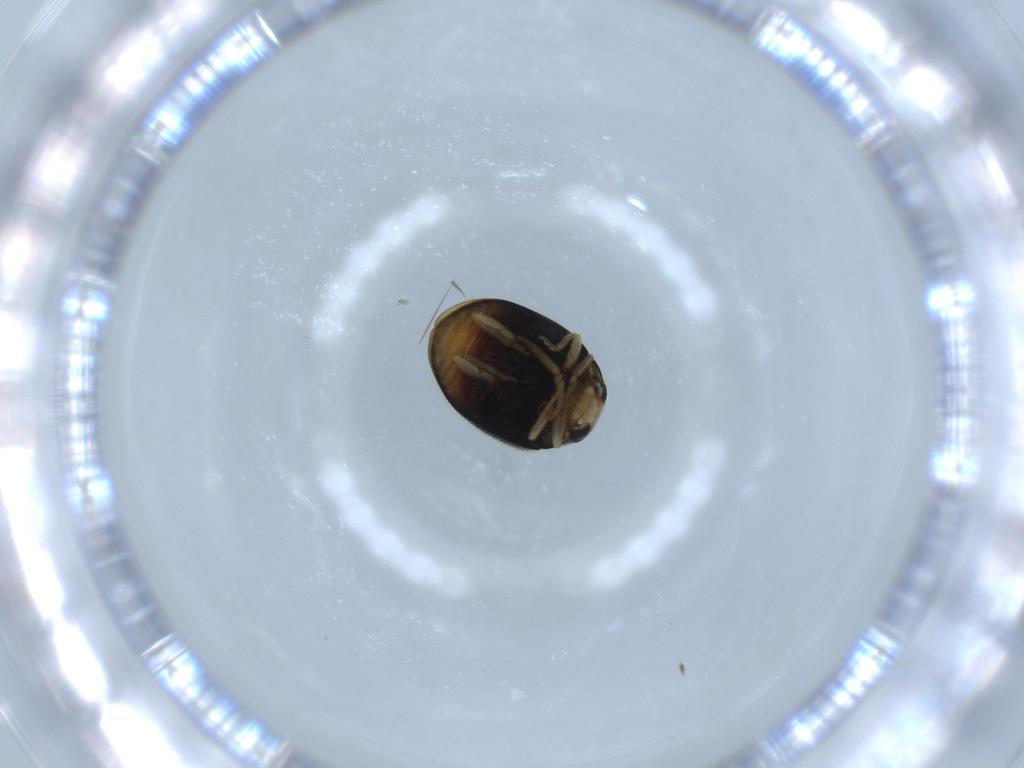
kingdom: Animalia
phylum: Arthropoda
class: Insecta
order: Coleoptera
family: Coccinellidae
